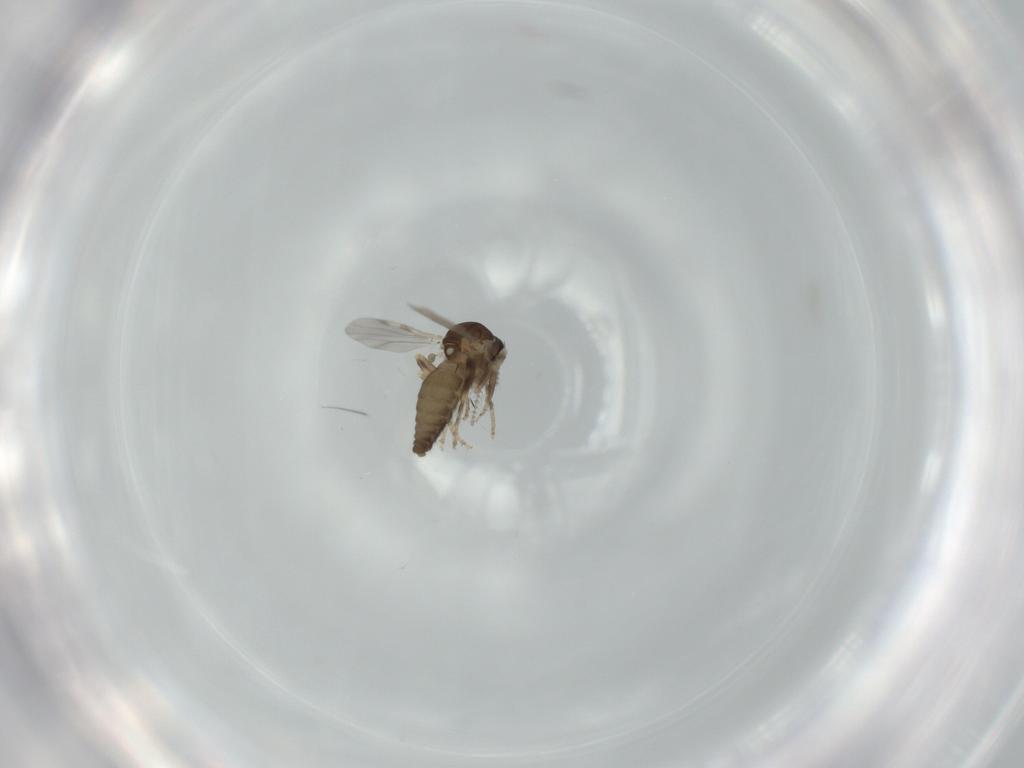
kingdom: Animalia
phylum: Arthropoda
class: Insecta
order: Diptera
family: Ceratopogonidae
